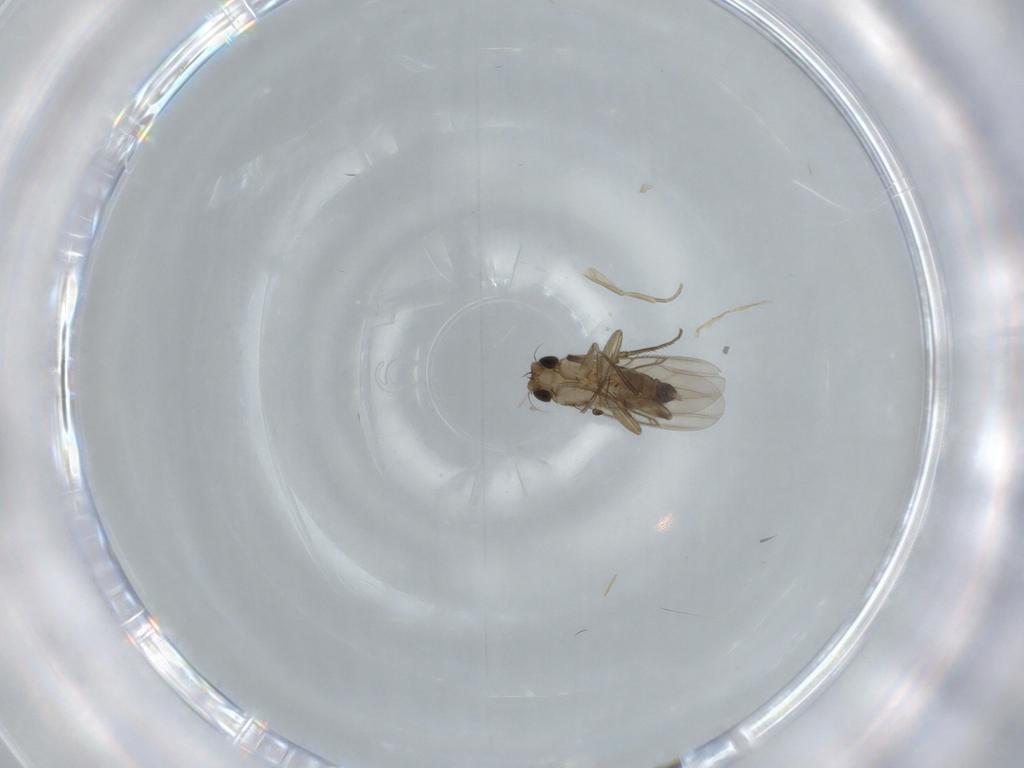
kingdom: Animalia
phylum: Arthropoda
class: Insecta
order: Diptera
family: Phoridae
